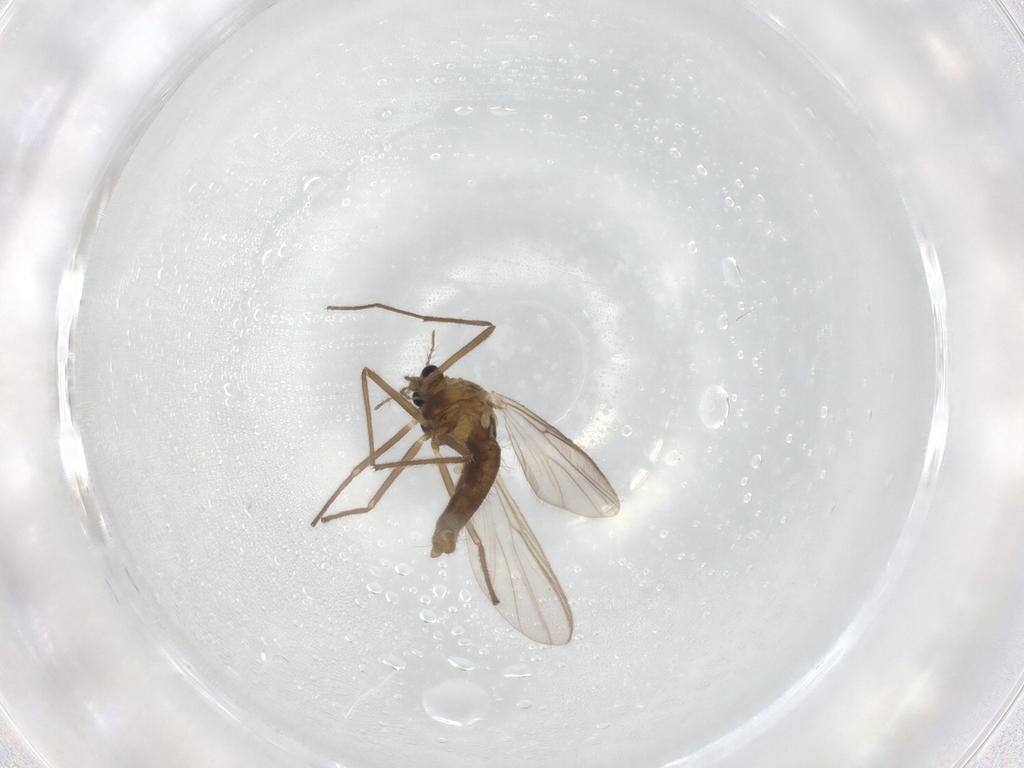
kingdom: Animalia
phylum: Arthropoda
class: Insecta
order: Diptera
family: Chironomidae
